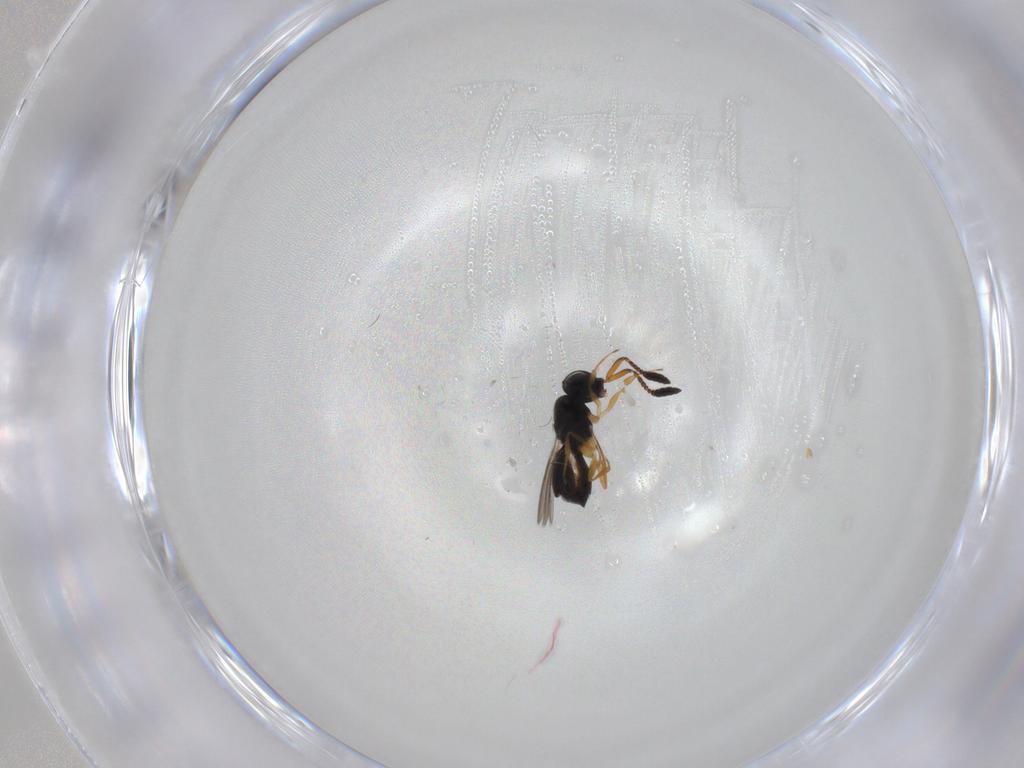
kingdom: Animalia
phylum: Arthropoda
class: Insecta
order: Hymenoptera
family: Scelionidae
